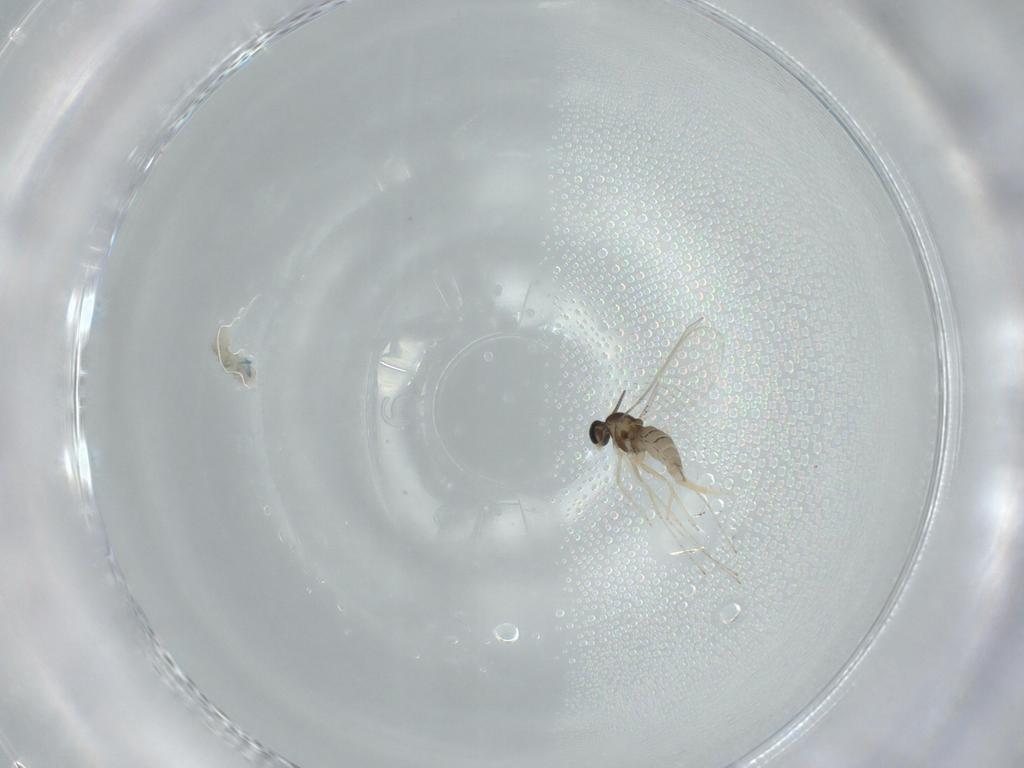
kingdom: Animalia
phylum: Arthropoda
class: Insecta
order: Diptera
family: Cecidomyiidae
